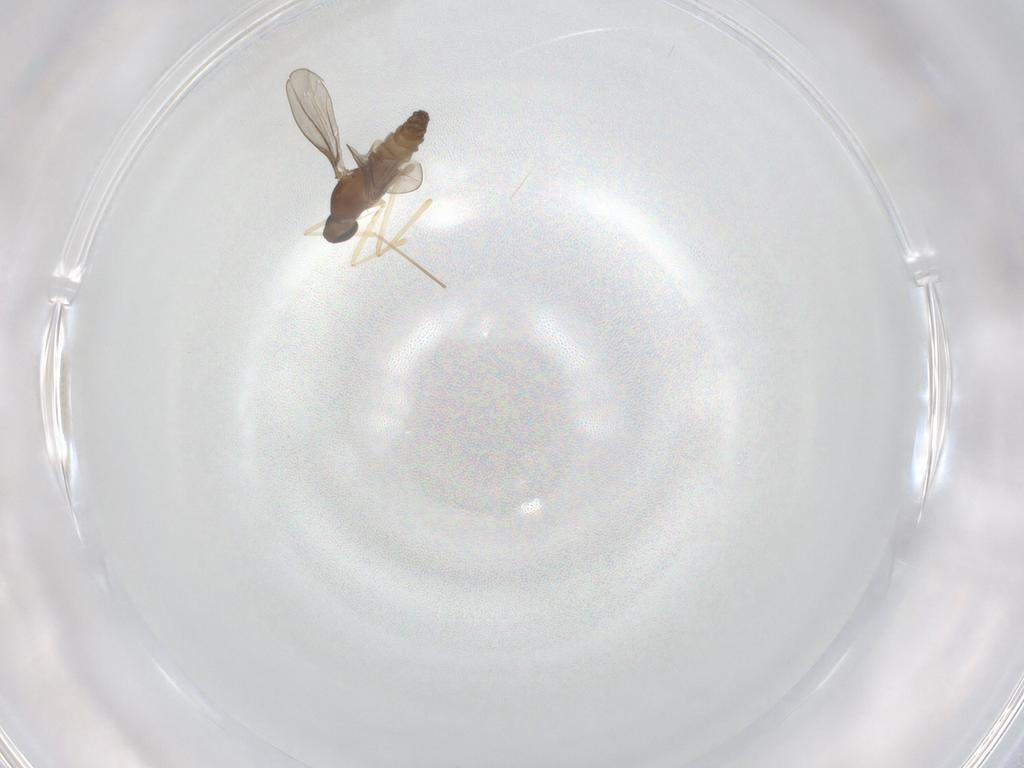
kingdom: Animalia
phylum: Arthropoda
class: Insecta
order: Diptera
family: Cecidomyiidae
